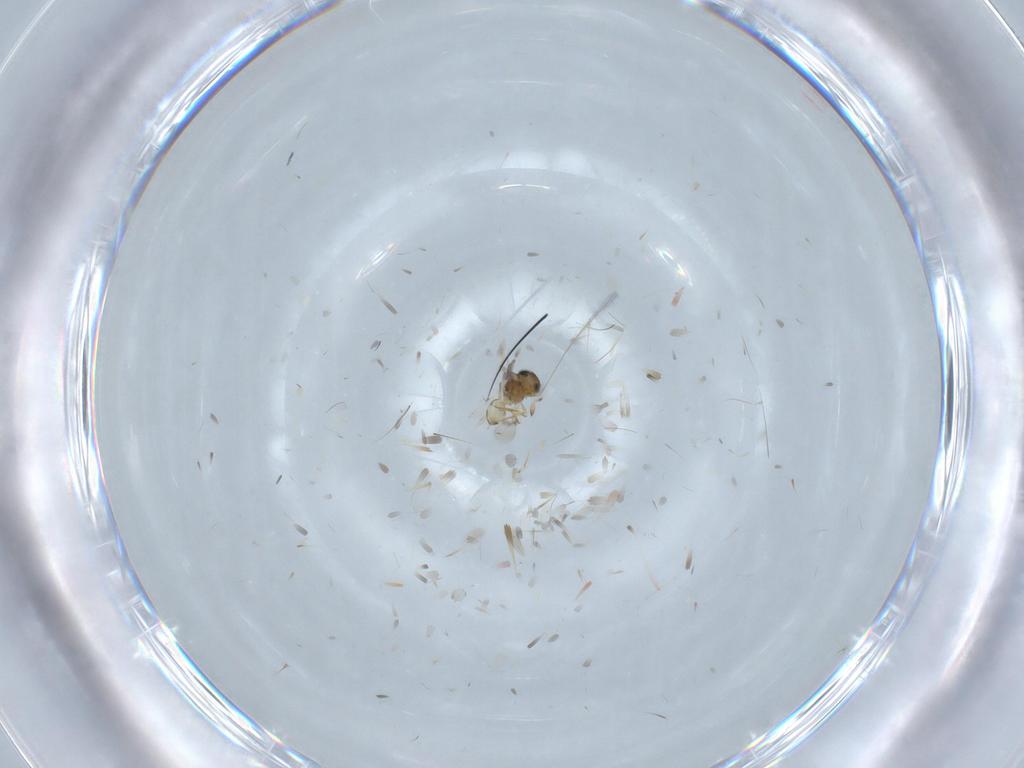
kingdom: Animalia
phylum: Arthropoda
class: Insecta
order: Hymenoptera
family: Scelionidae
